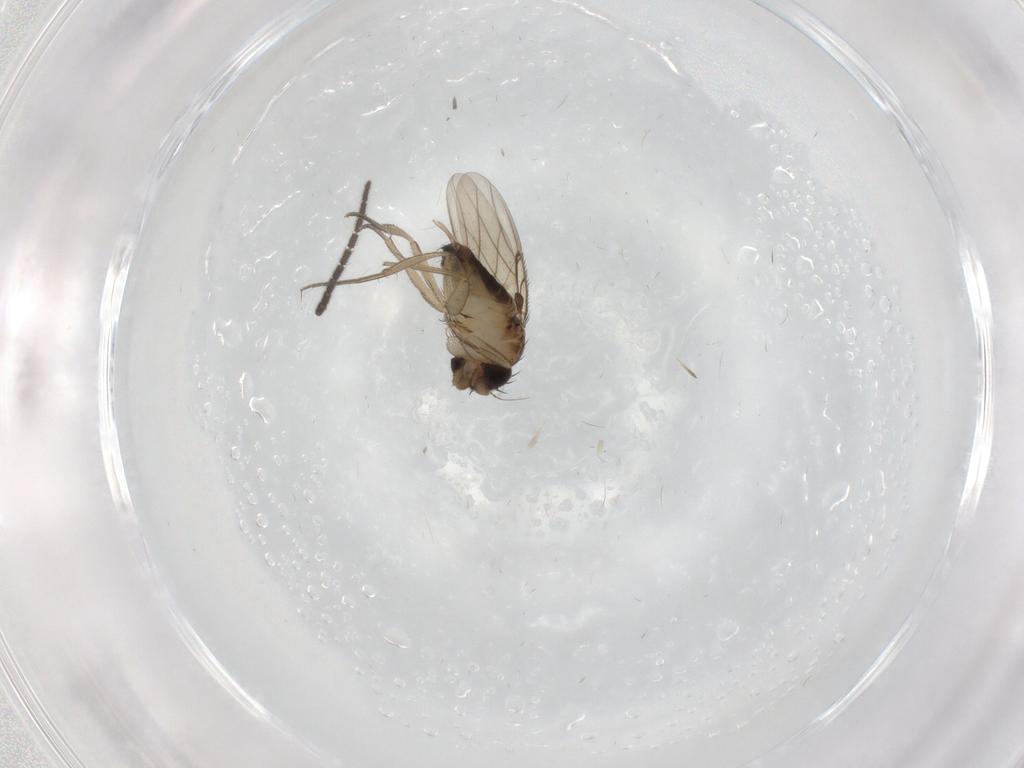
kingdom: Animalia
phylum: Arthropoda
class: Insecta
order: Diptera
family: Sciaridae
